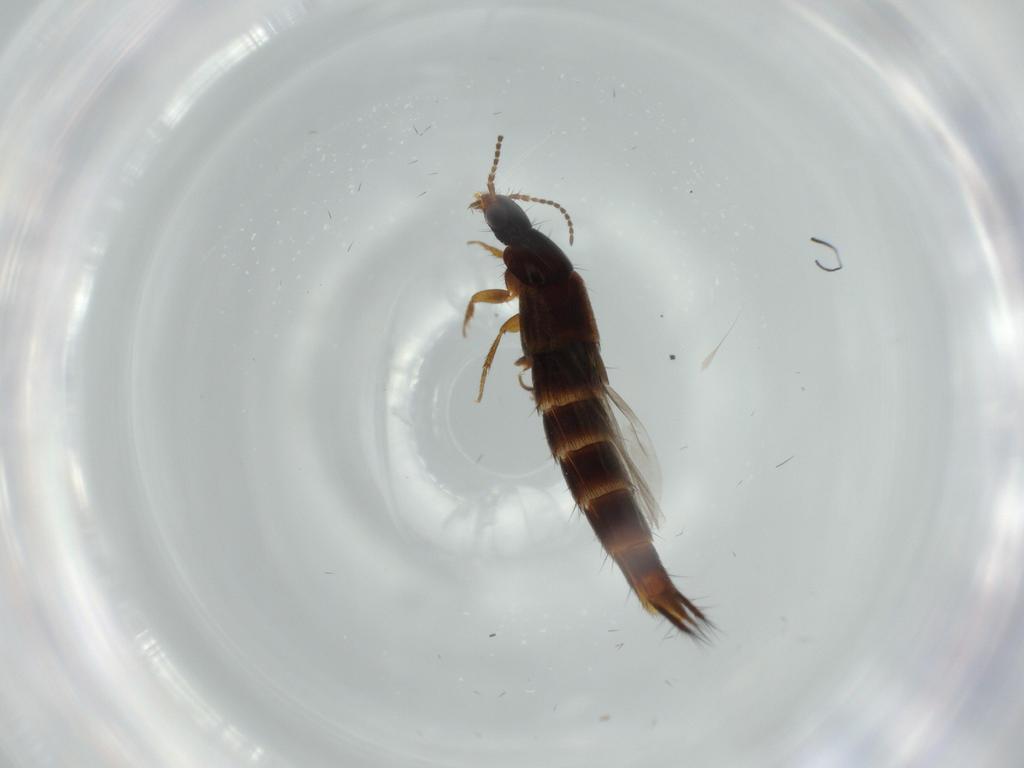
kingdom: Animalia
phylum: Arthropoda
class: Insecta
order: Coleoptera
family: Staphylinidae
